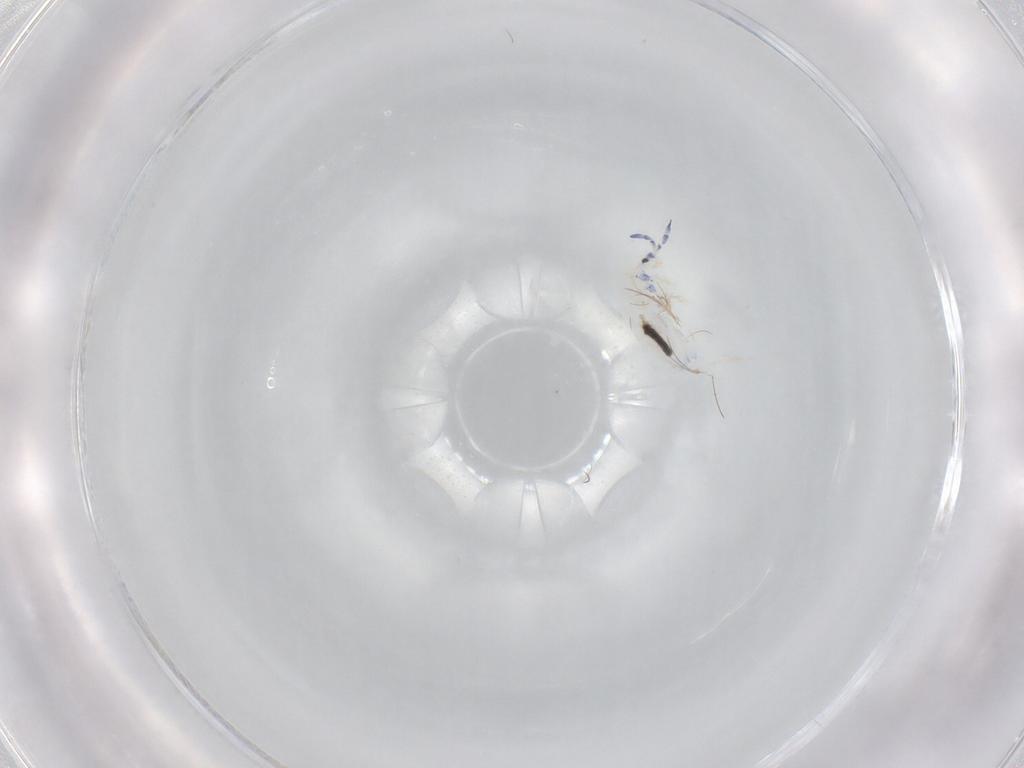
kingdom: Animalia
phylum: Arthropoda
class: Collembola
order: Entomobryomorpha
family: Entomobryidae
